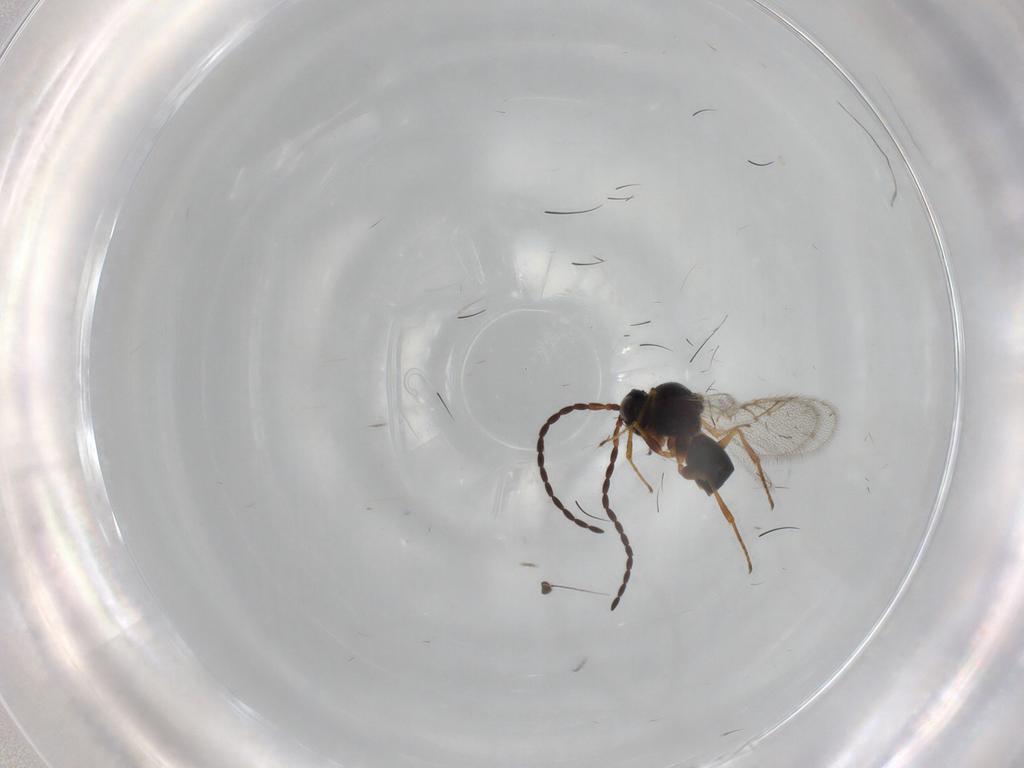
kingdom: Animalia
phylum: Arthropoda
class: Insecta
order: Hymenoptera
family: Figitidae
